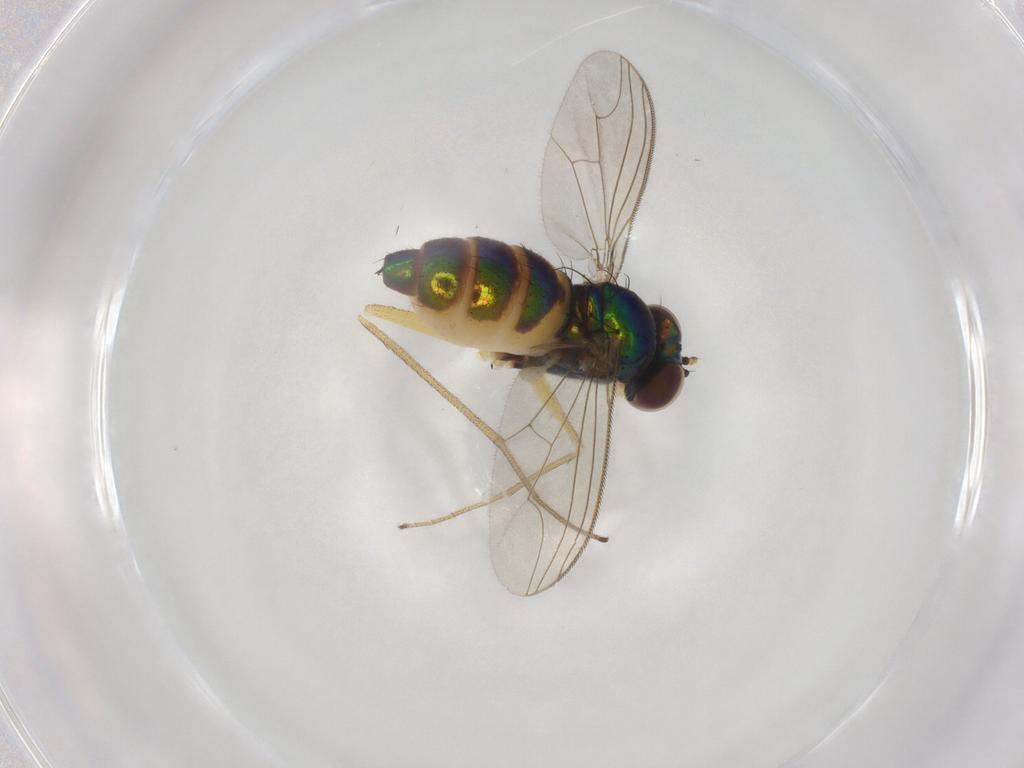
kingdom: Animalia
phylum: Arthropoda
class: Insecta
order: Diptera
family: Dolichopodidae
